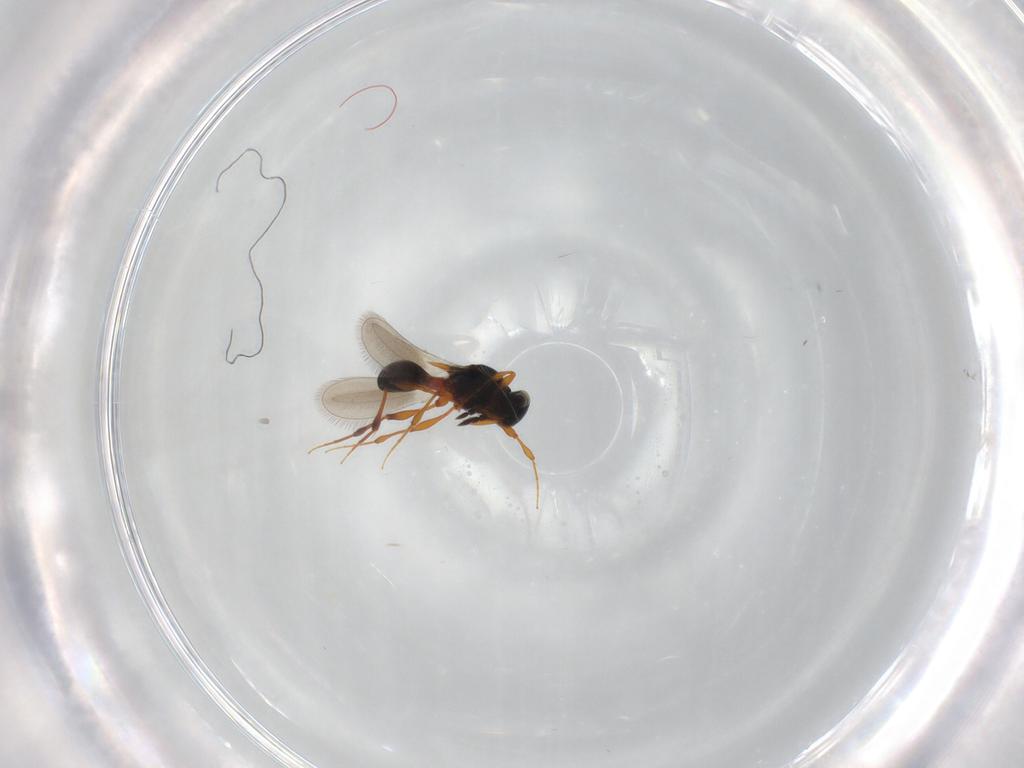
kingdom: Animalia
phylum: Arthropoda
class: Insecta
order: Hymenoptera
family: Platygastridae
